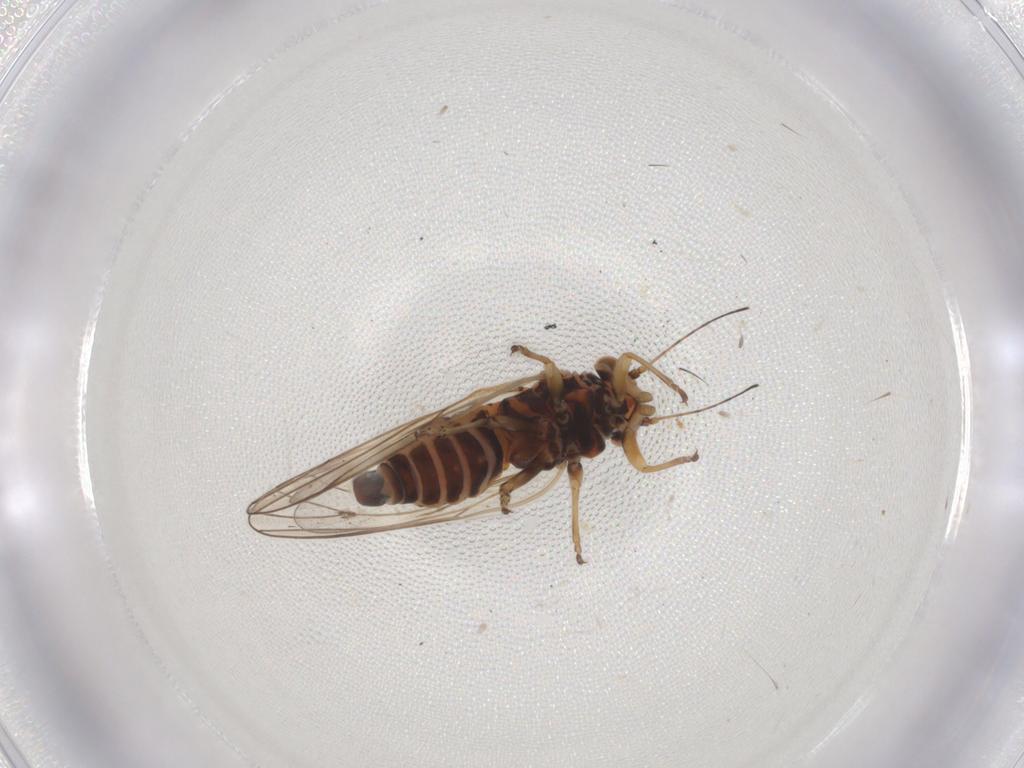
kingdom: Animalia
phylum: Arthropoda
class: Insecta
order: Hemiptera
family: Psyllidae
